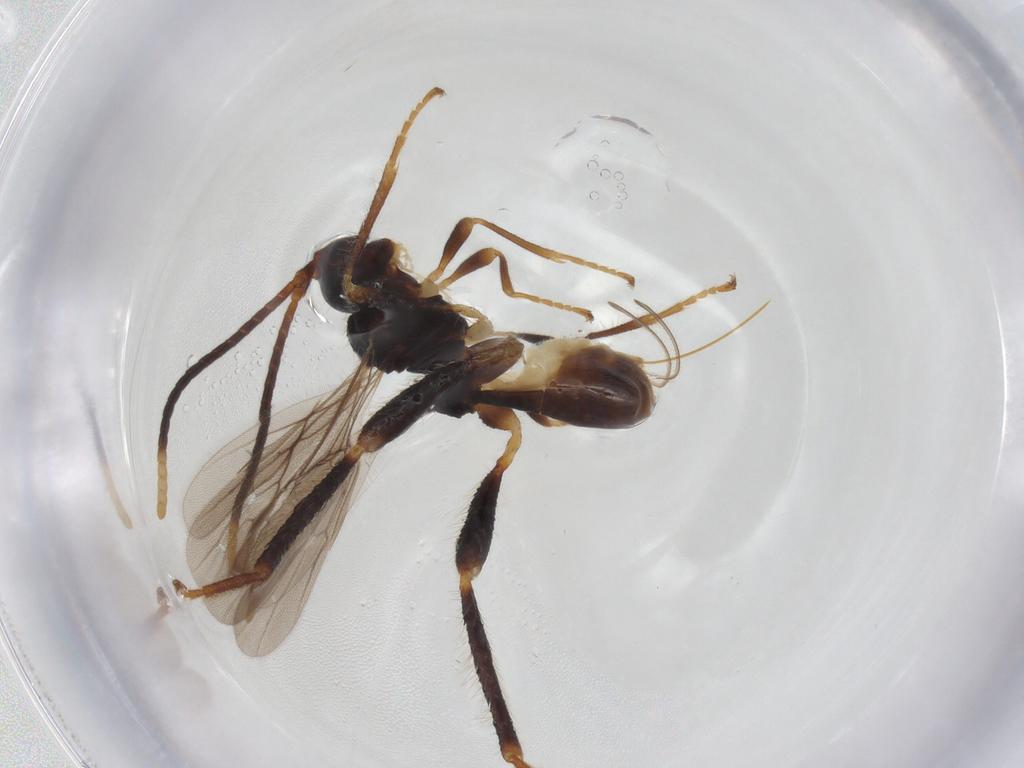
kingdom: Animalia
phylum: Arthropoda
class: Insecta
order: Hymenoptera
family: Braconidae
